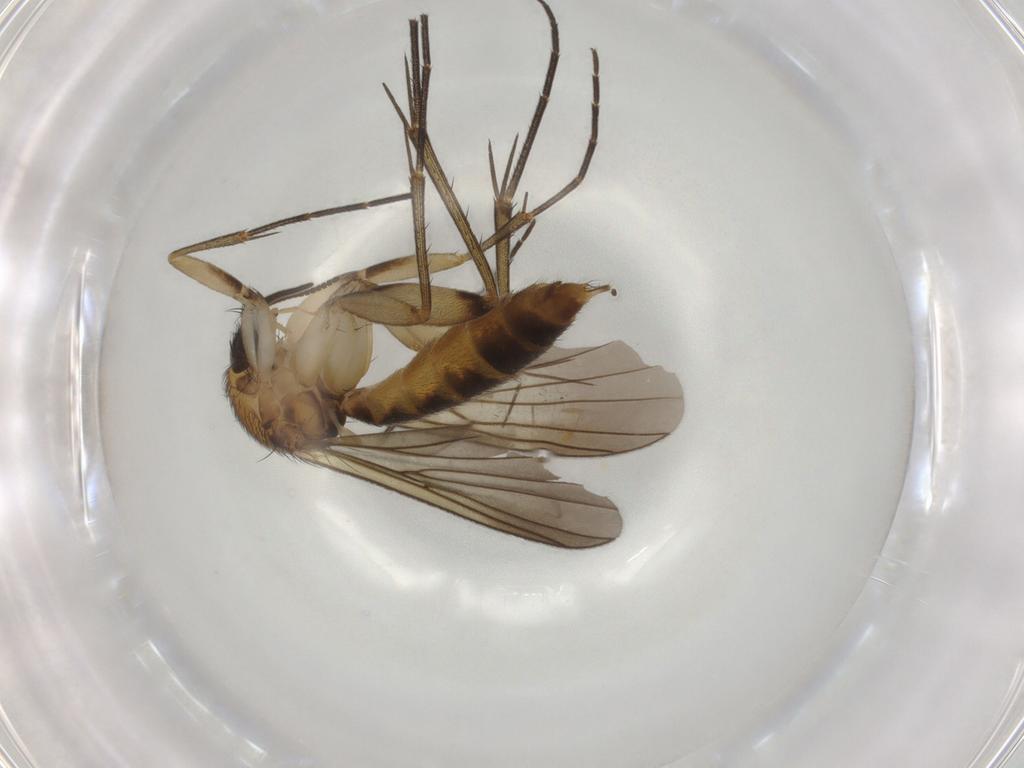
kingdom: Animalia
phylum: Arthropoda
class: Insecta
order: Diptera
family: Mycetophilidae
